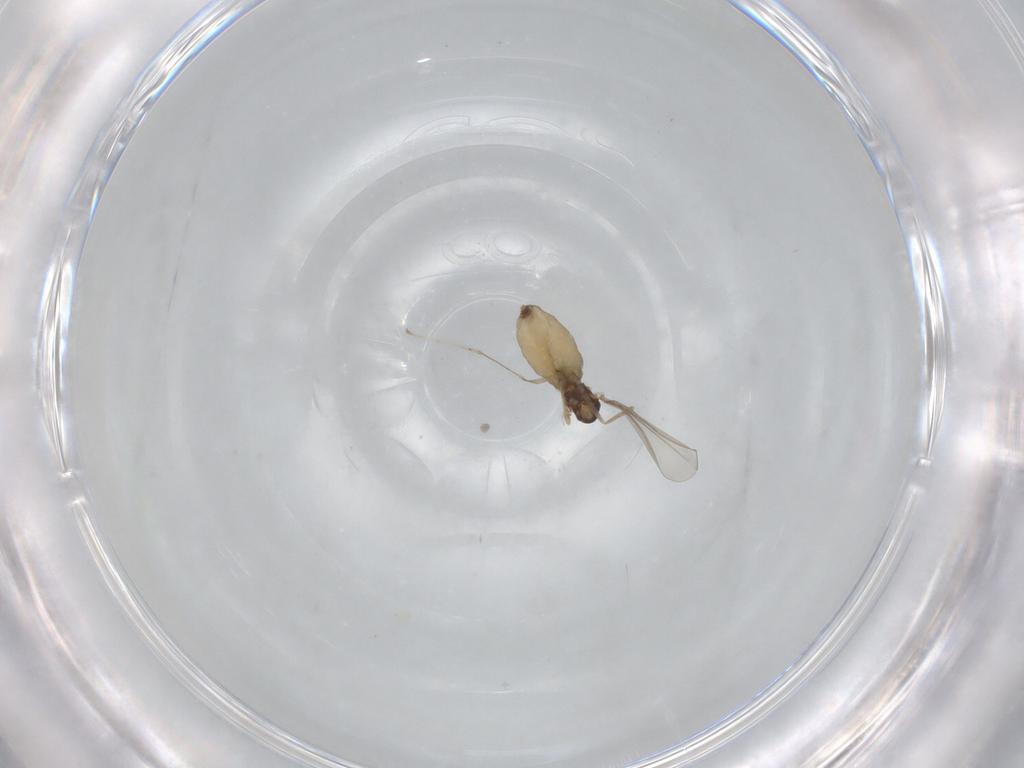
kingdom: Animalia
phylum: Arthropoda
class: Insecta
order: Diptera
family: Cecidomyiidae
